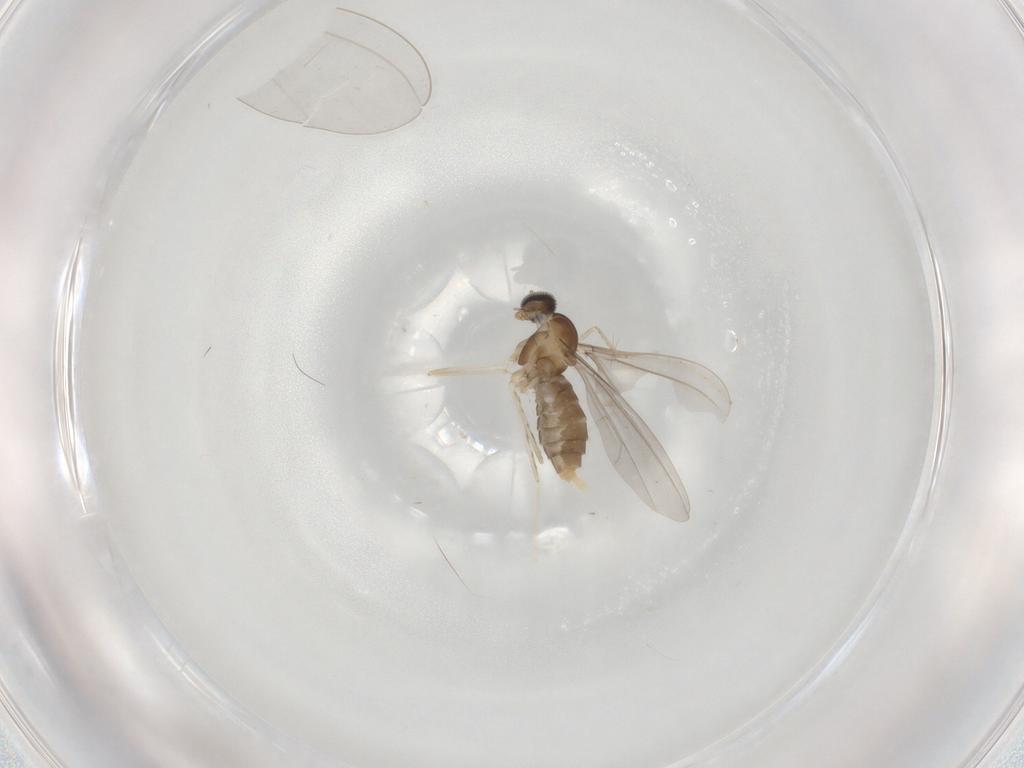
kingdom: Animalia
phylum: Arthropoda
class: Insecta
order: Diptera
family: Cecidomyiidae
